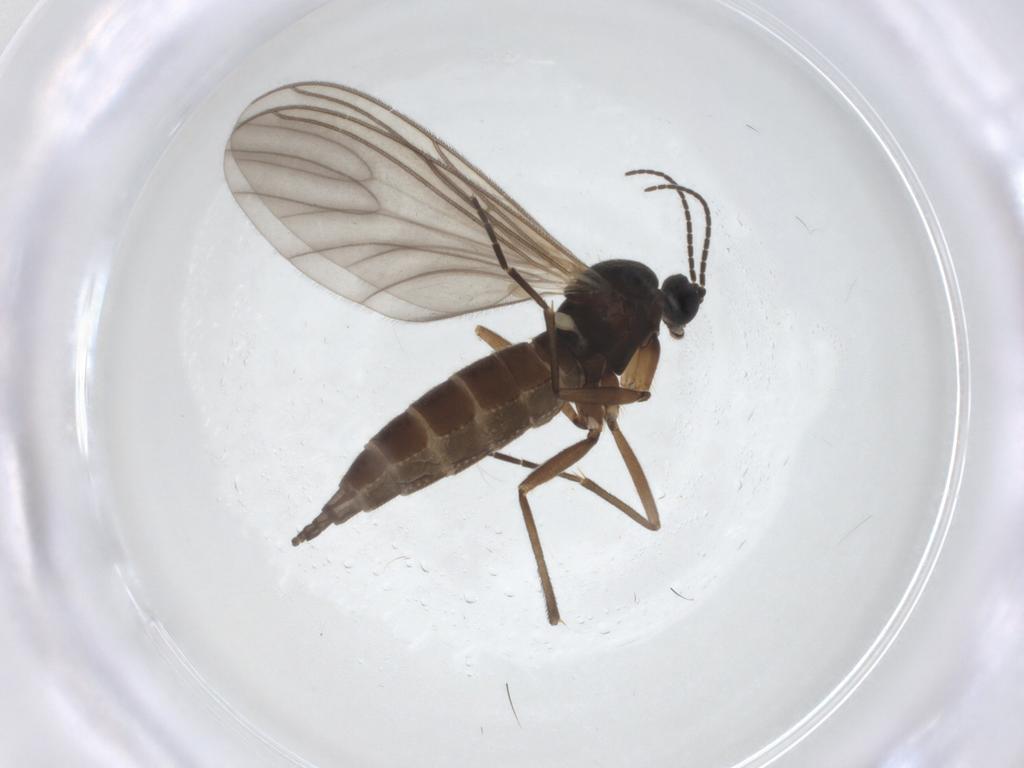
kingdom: Animalia
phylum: Arthropoda
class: Insecta
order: Diptera
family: Sciaridae
